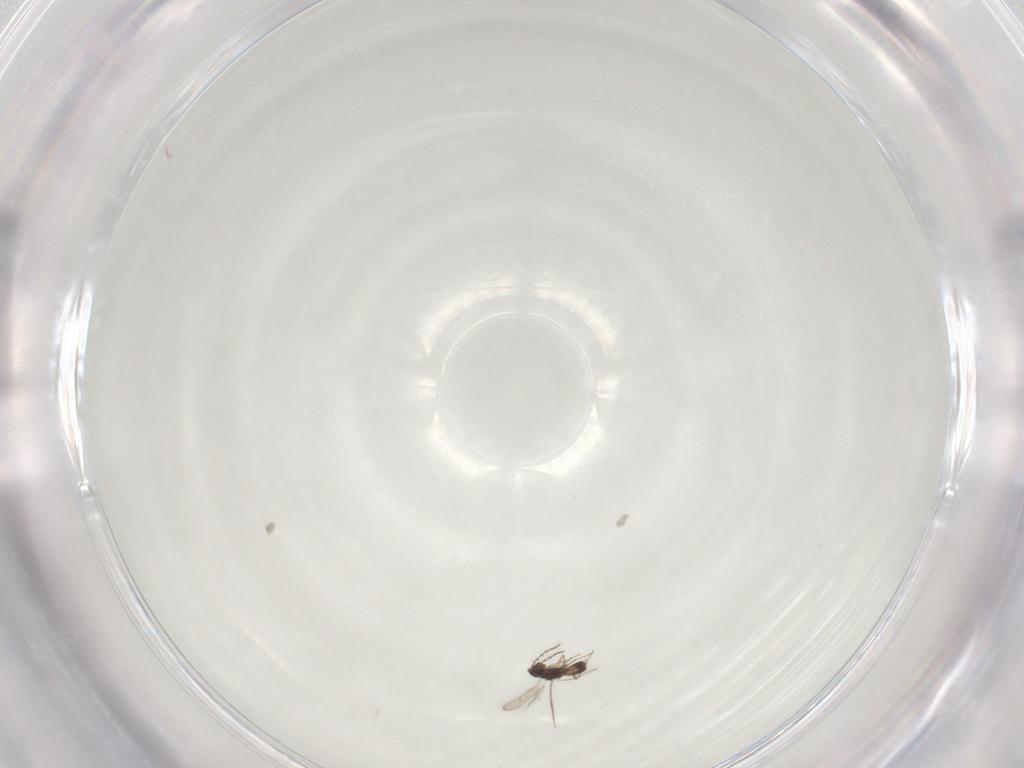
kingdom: Animalia
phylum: Arthropoda
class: Insecta
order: Hymenoptera
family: Pteromalidae
